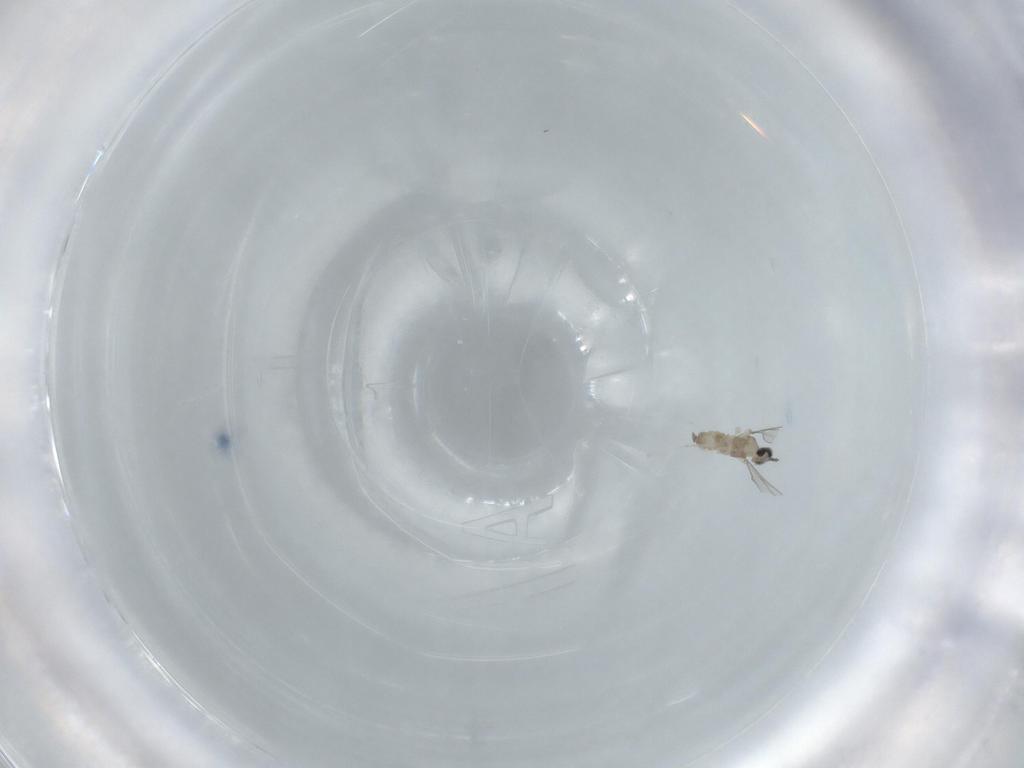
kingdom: Animalia
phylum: Arthropoda
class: Insecta
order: Diptera
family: Cecidomyiidae
